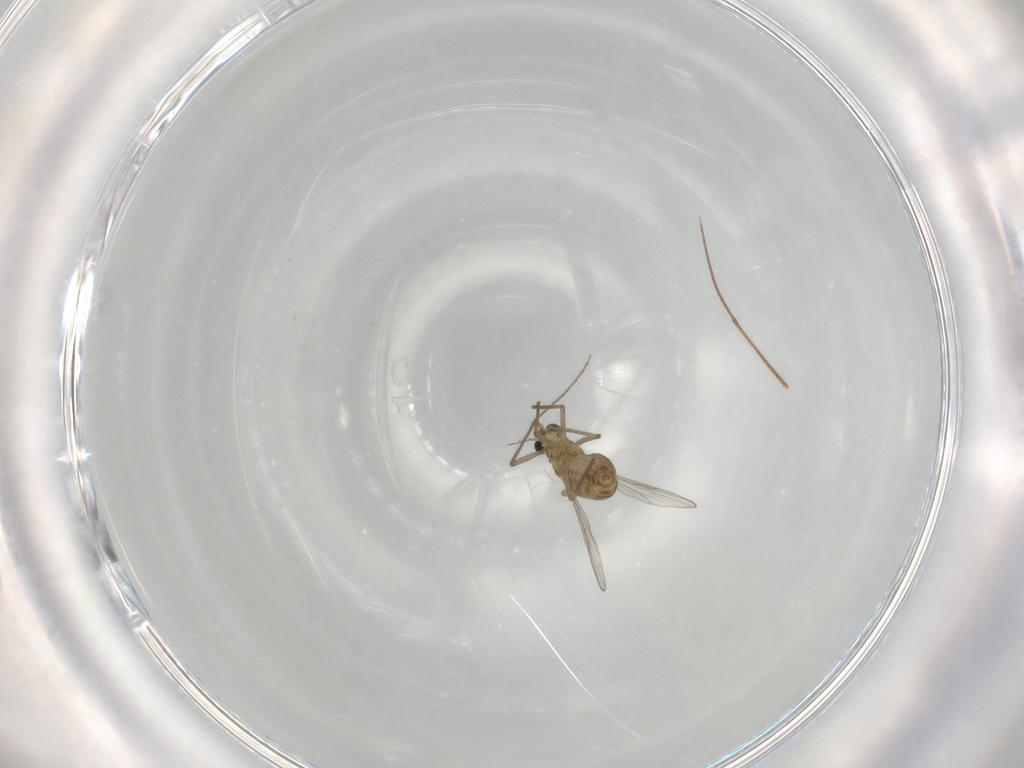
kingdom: Animalia
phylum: Arthropoda
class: Insecta
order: Diptera
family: Chironomidae
